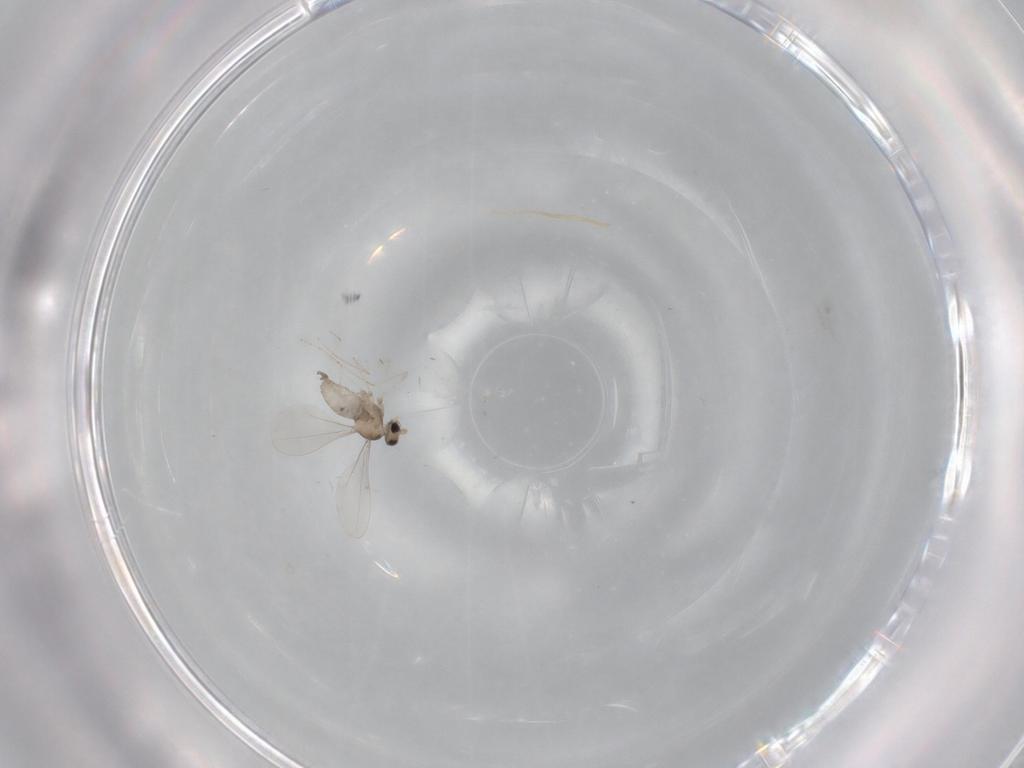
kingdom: Animalia
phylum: Arthropoda
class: Insecta
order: Diptera
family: Cecidomyiidae
